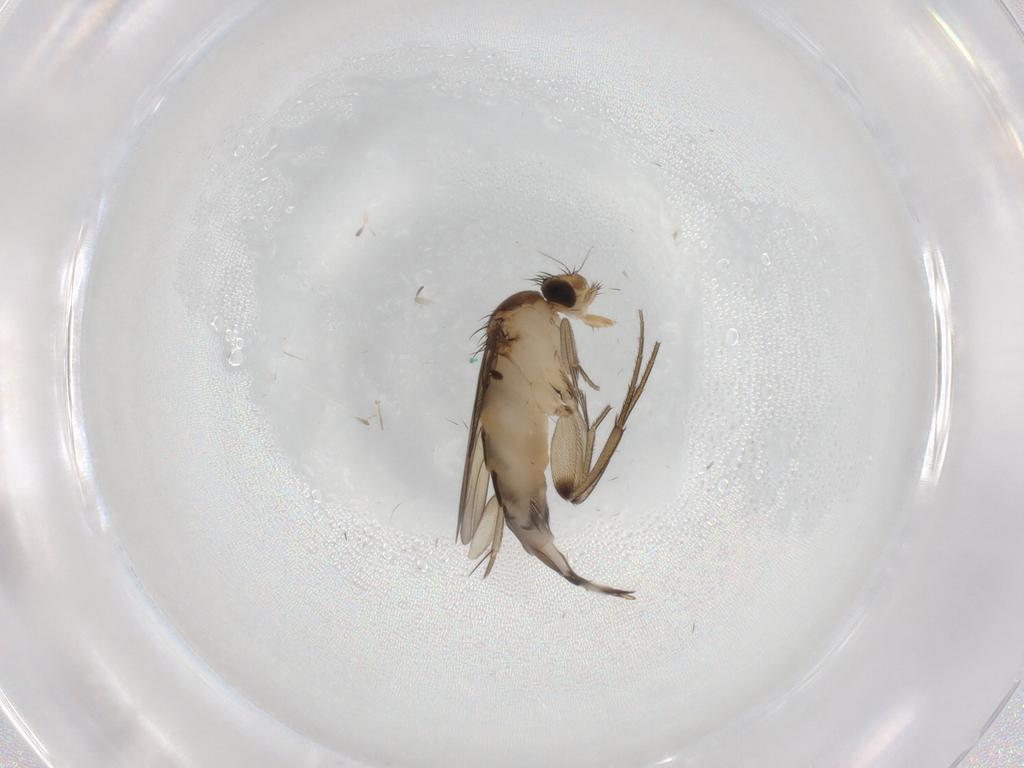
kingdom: Animalia
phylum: Arthropoda
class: Insecta
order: Diptera
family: Phoridae
